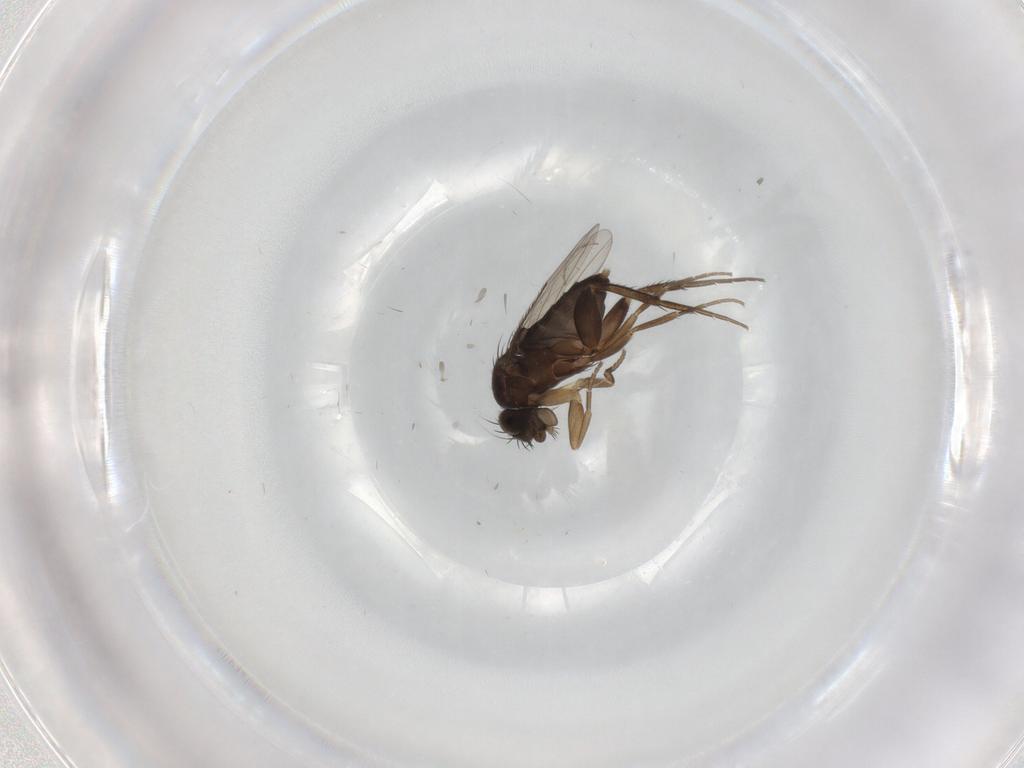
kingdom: Animalia
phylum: Arthropoda
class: Insecta
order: Diptera
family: Phoridae
